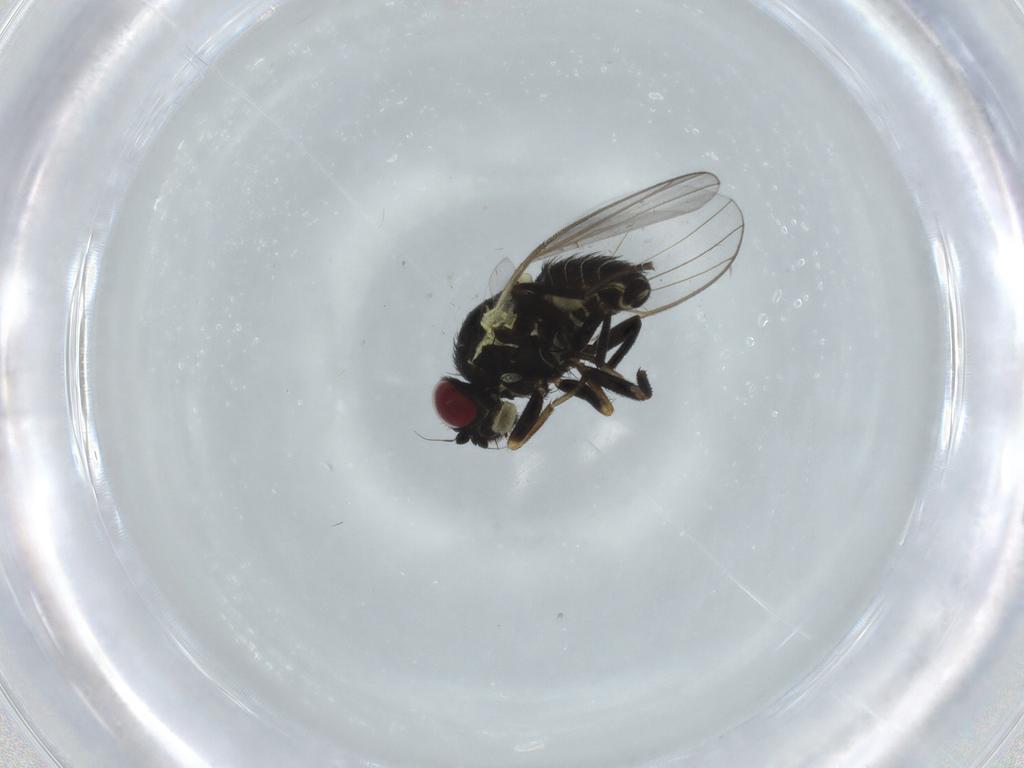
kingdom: Animalia
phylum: Arthropoda
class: Insecta
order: Diptera
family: Agromyzidae
